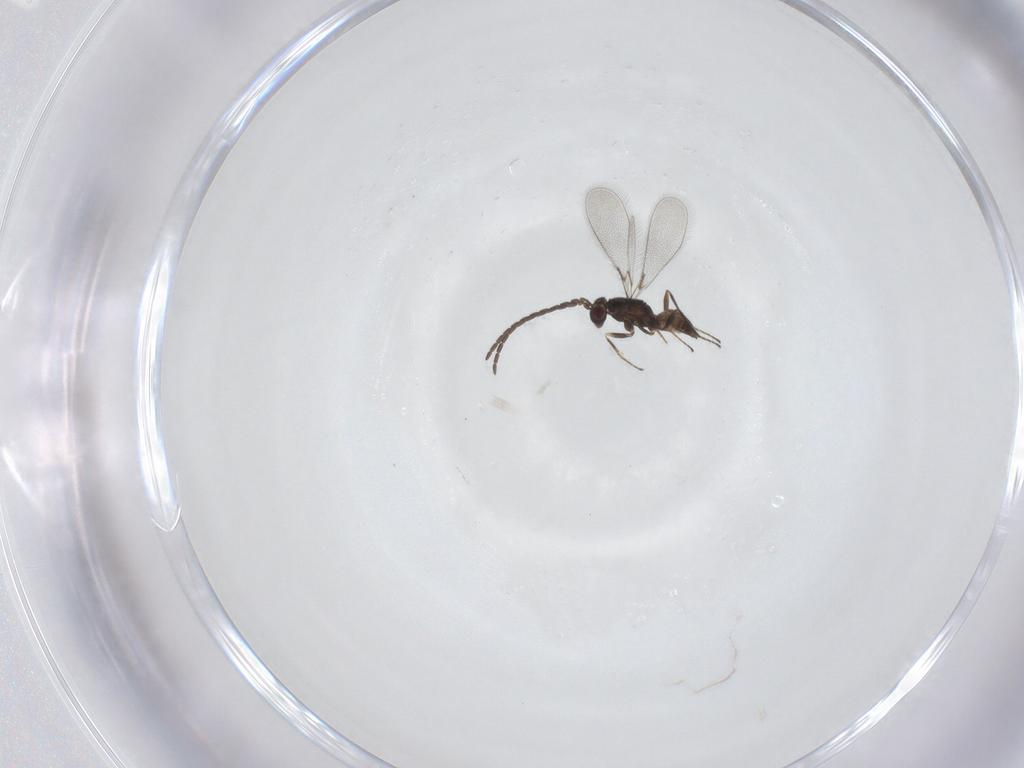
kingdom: Animalia
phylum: Arthropoda
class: Insecta
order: Hymenoptera
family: Mymaridae
